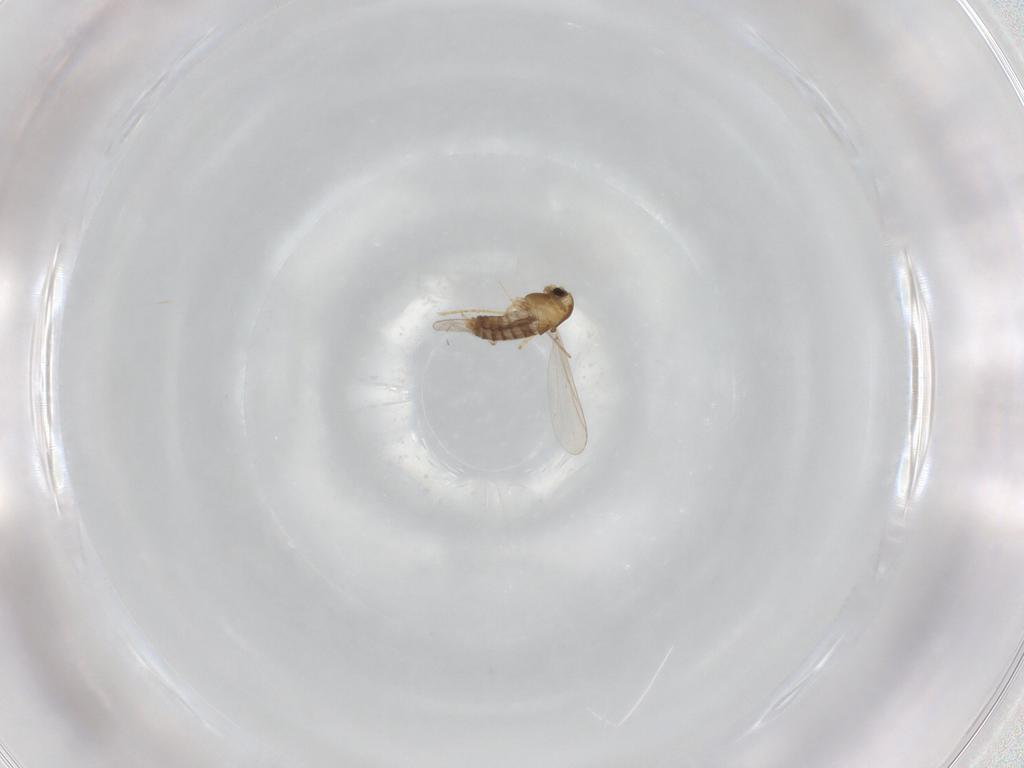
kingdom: Animalia
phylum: Arthropoda
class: Insecta
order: Diptera
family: Chironomidae
